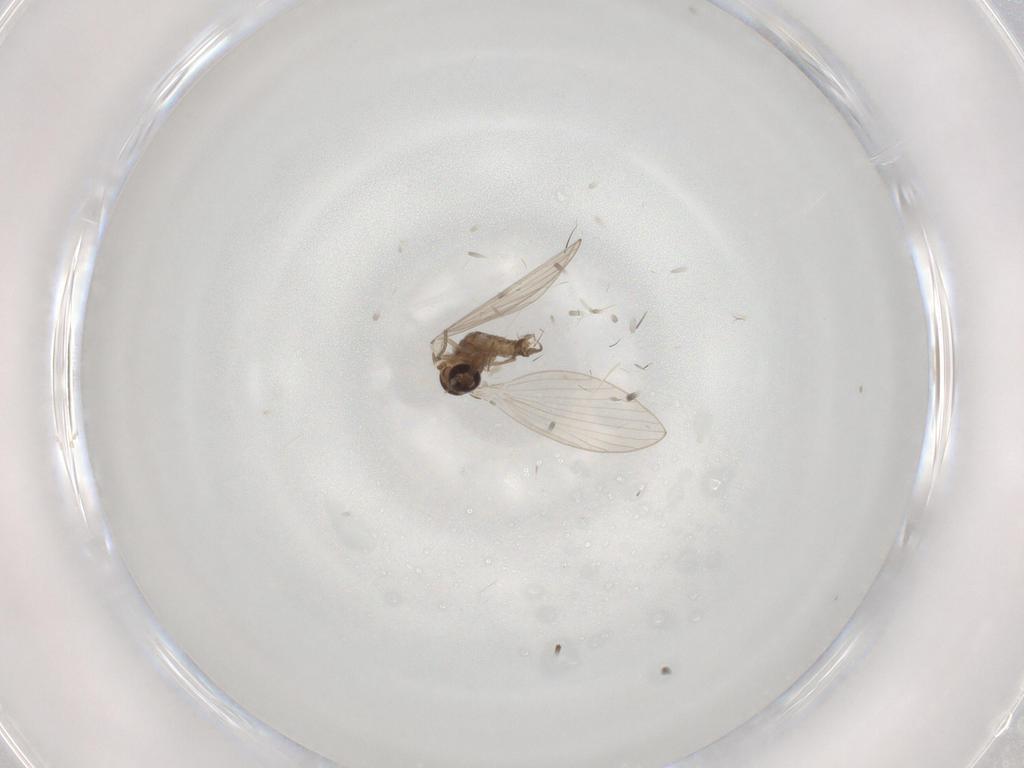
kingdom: Animalia
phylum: Arthropoda
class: Insecta
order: Diptera
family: Psychodidae
